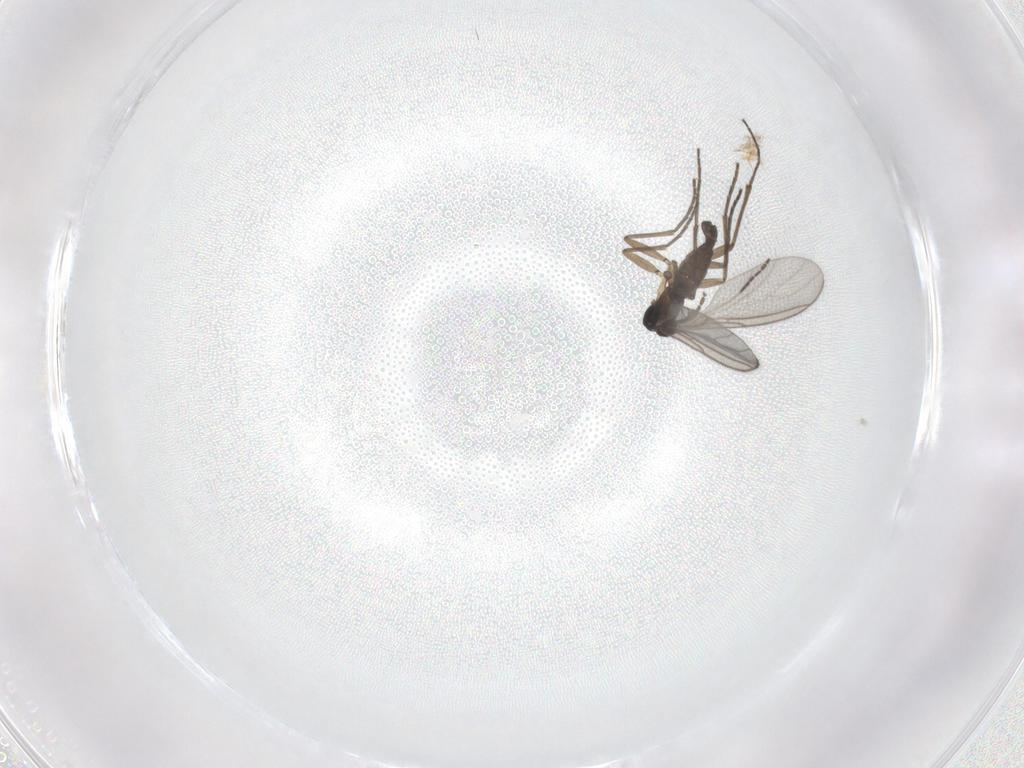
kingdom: Animalia
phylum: Arthropoda
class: Insecta
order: Diptera
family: Sciaridae
